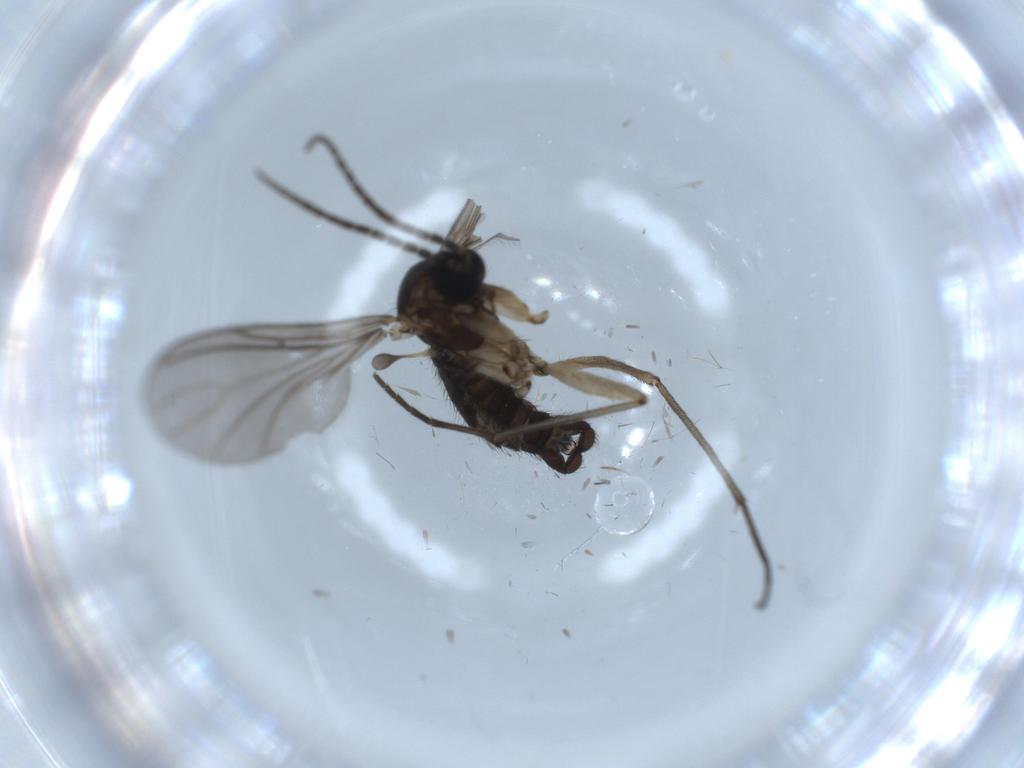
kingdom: Animalia
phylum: Arthropoda
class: Insecta
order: Diptera
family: Sciaridae
